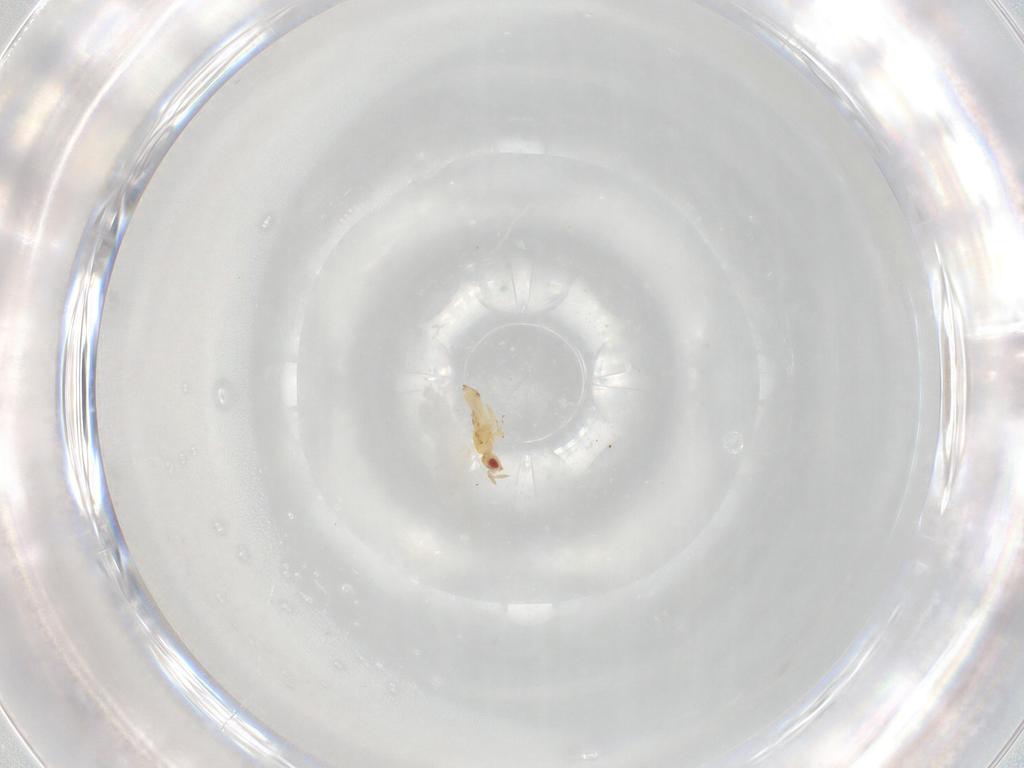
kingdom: Animalia
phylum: Arthropoda
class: Insecta
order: Hymenoptera
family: Trichogrammatidae
